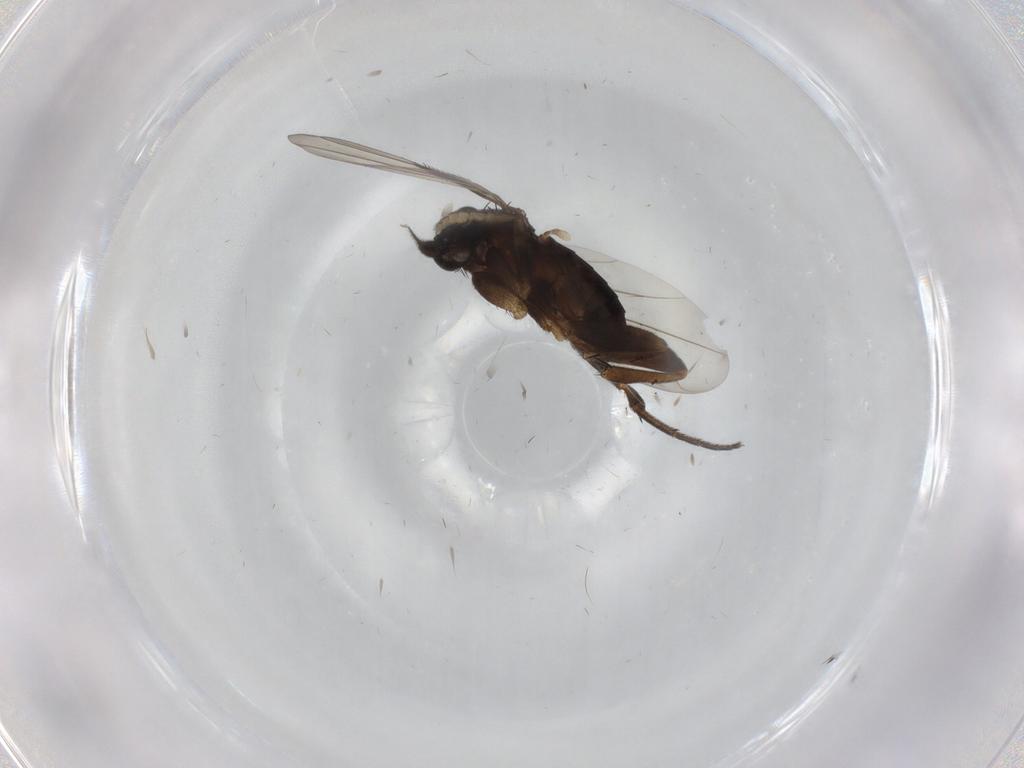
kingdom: Animalia
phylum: Arthropoda
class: Insecta
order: Diptera
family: Phoridae
